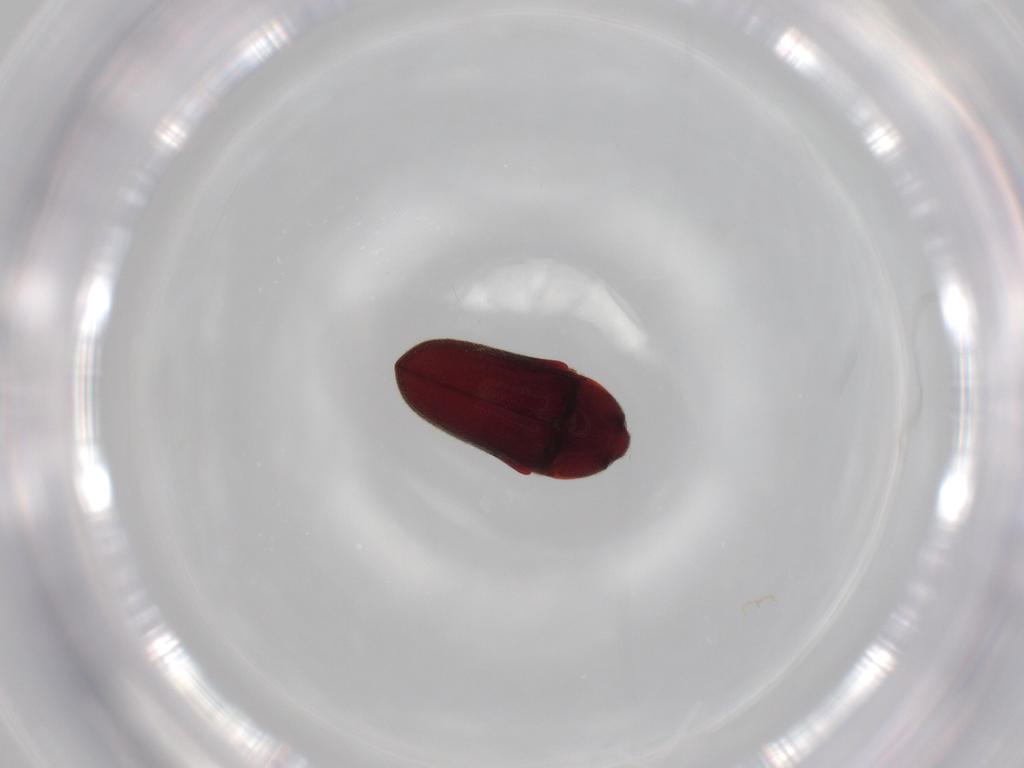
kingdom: Animalia
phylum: Arthropoda
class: Insecta
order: Coleoptera
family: Throscidae
